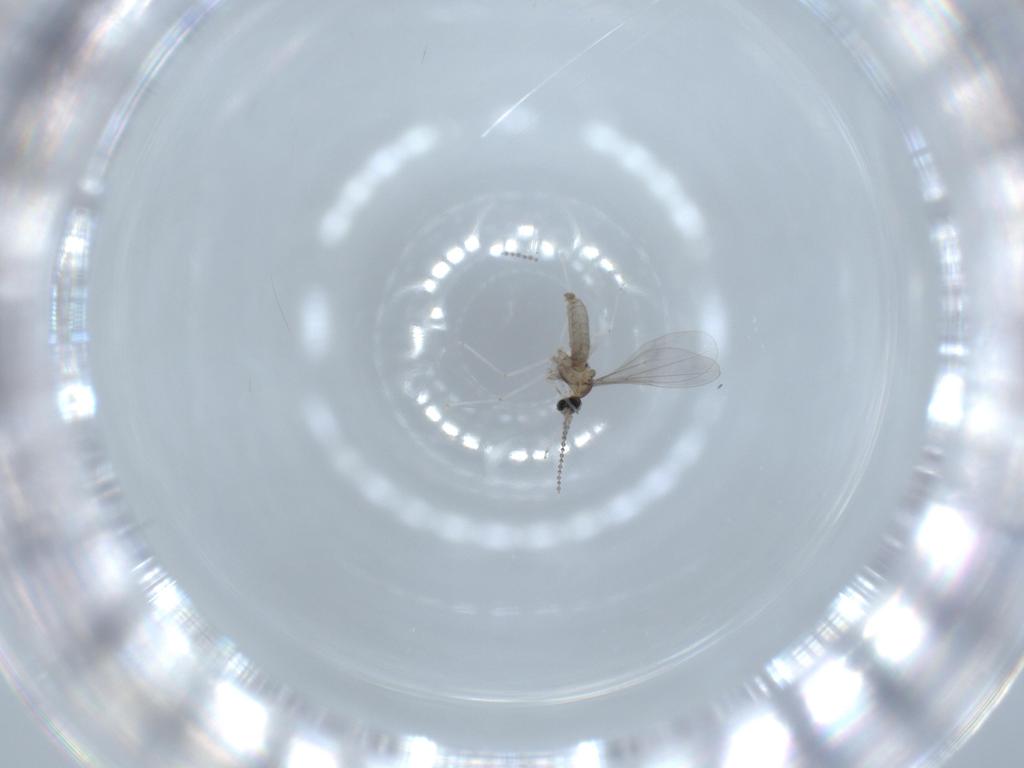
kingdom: Animalia
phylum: Arthropoda
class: Insecta
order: Diptera
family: Cecidomyiidae
